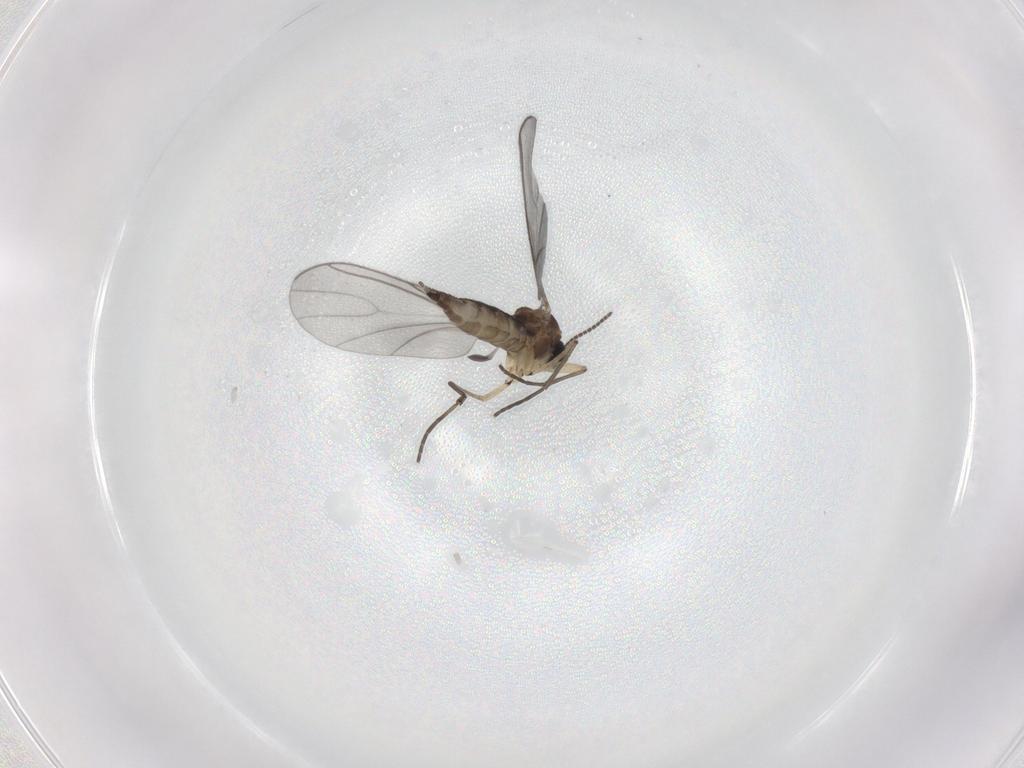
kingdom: Animalia
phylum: Arthropoda
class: Insecta
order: Diptera
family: Sciaridae
